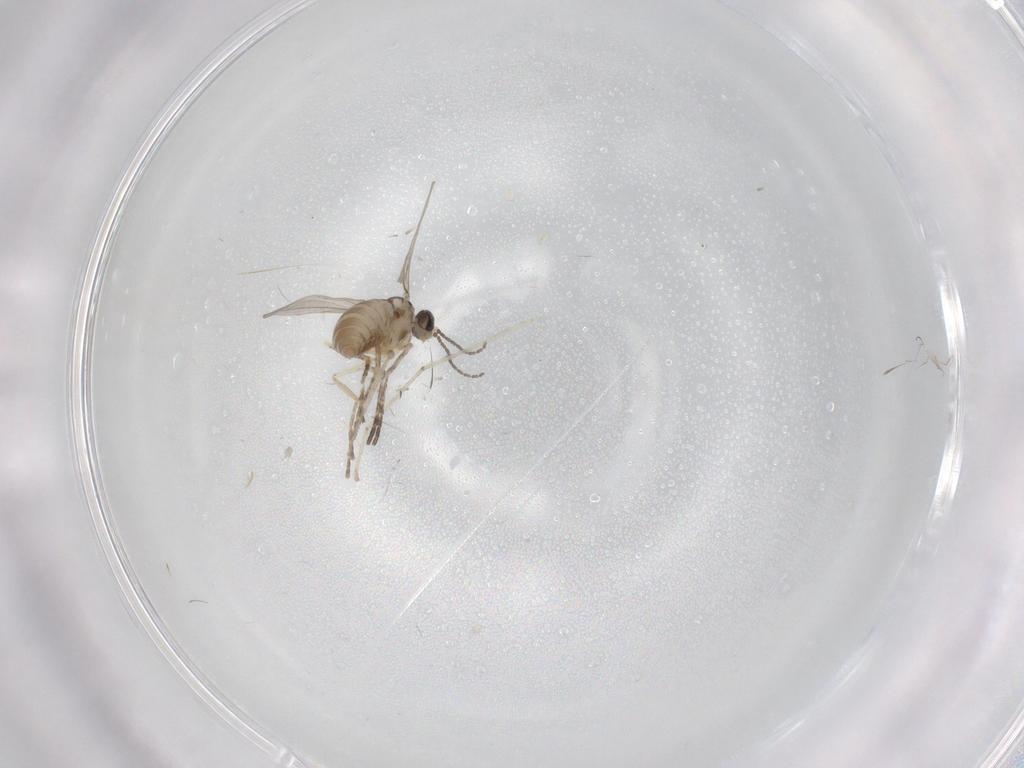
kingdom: Animalia
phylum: Arthropoda
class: Insecta
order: Diptera
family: Cecidomyiidae
